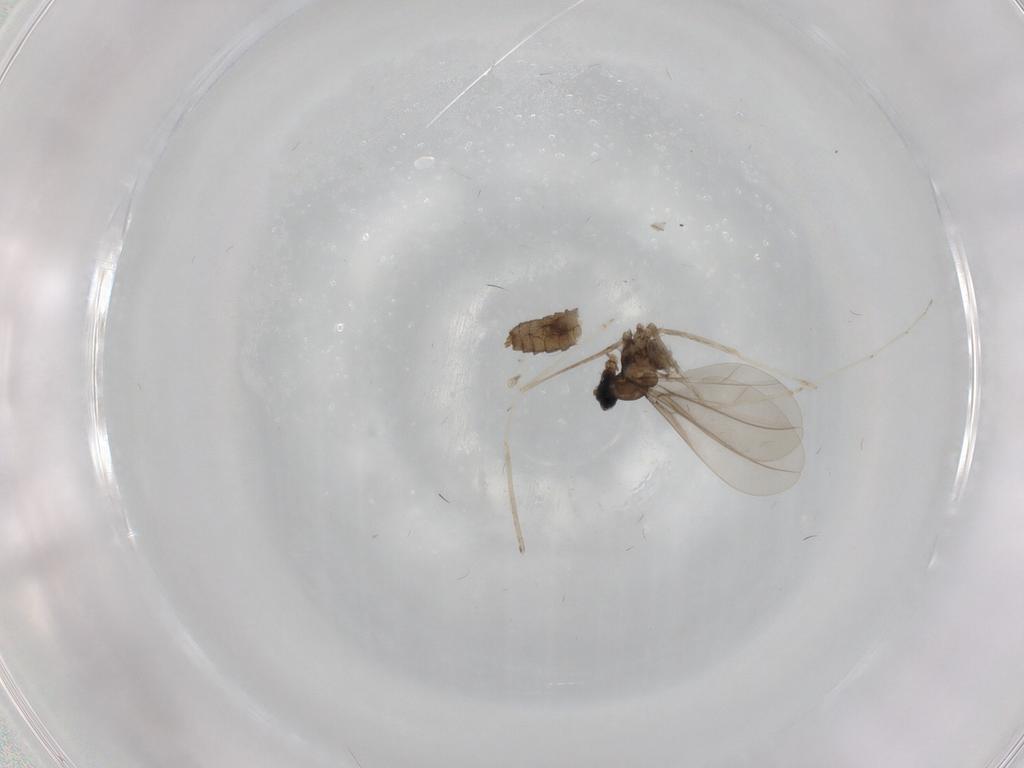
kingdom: Animalia
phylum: Arthropoda
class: Insecta
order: Diptera
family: Cecidomyiidae
